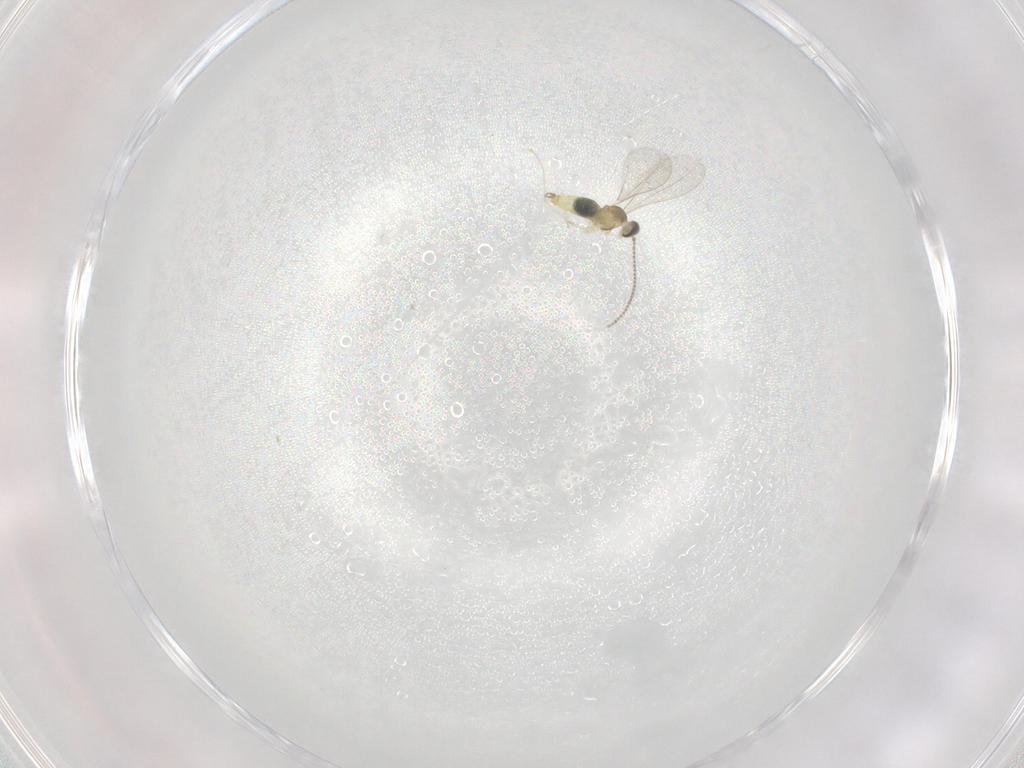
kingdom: Animalia
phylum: Arthropoda
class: Insecta
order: Diptera
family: Cecidomyiidae
